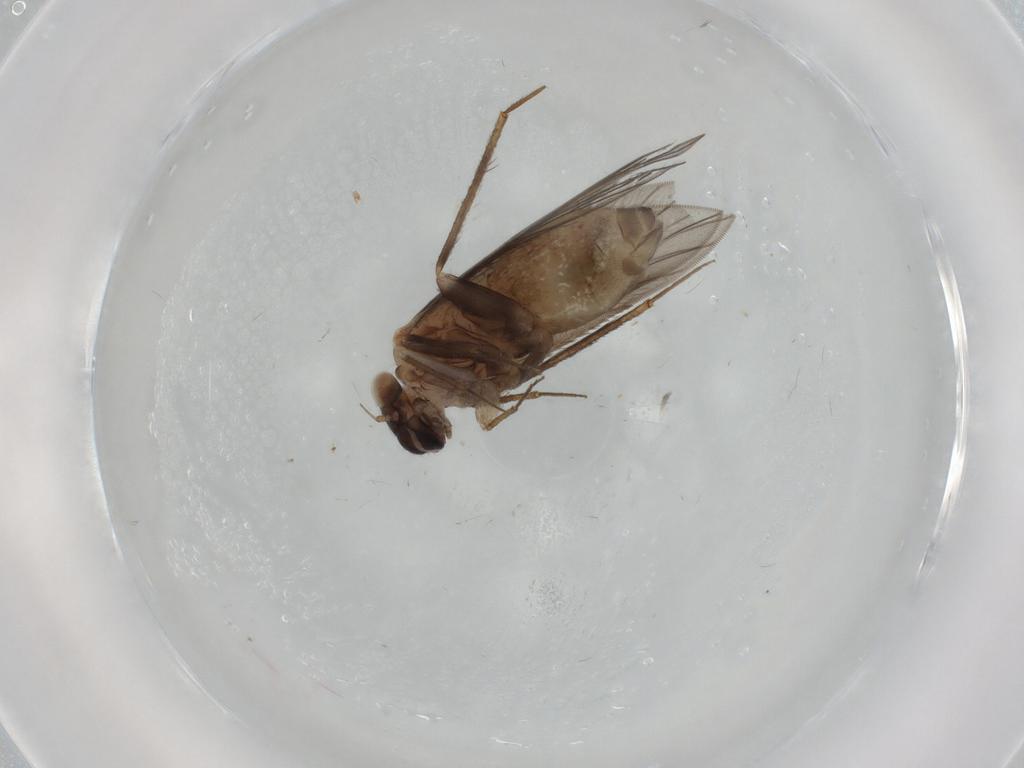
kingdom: Animalia
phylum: Arthropoda
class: Insecta
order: Psocodea
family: Lepidopsocidae
